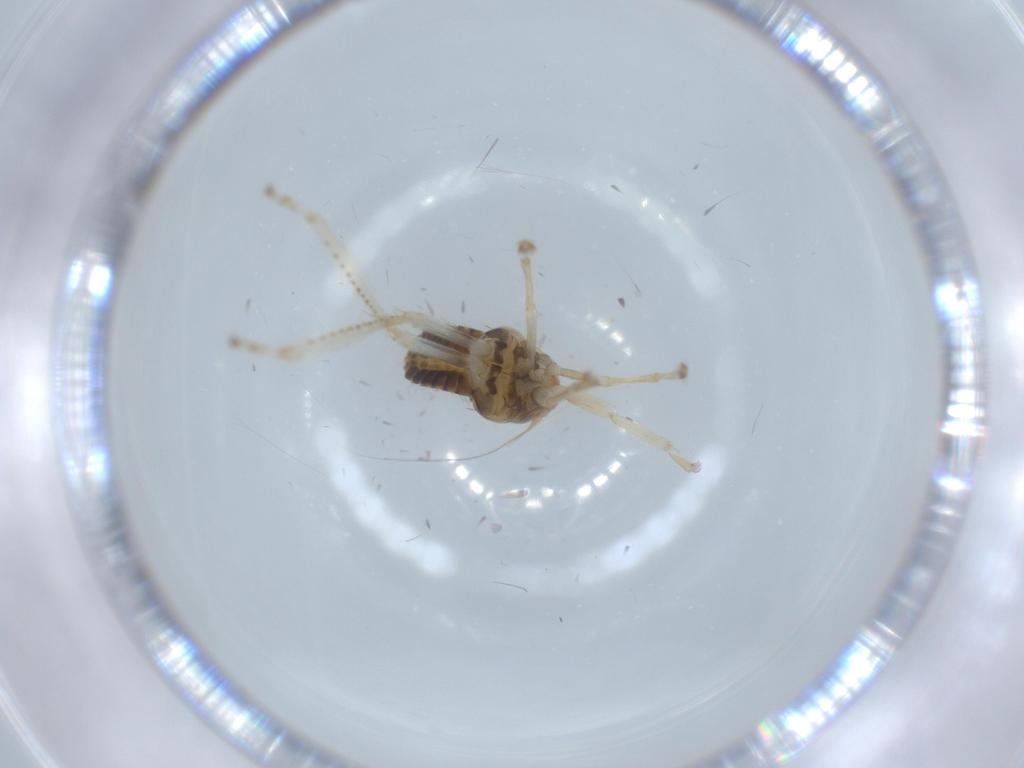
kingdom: Animalia
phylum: Arthropoda
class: Insecta
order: Hemiptera
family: Cicadellidae
